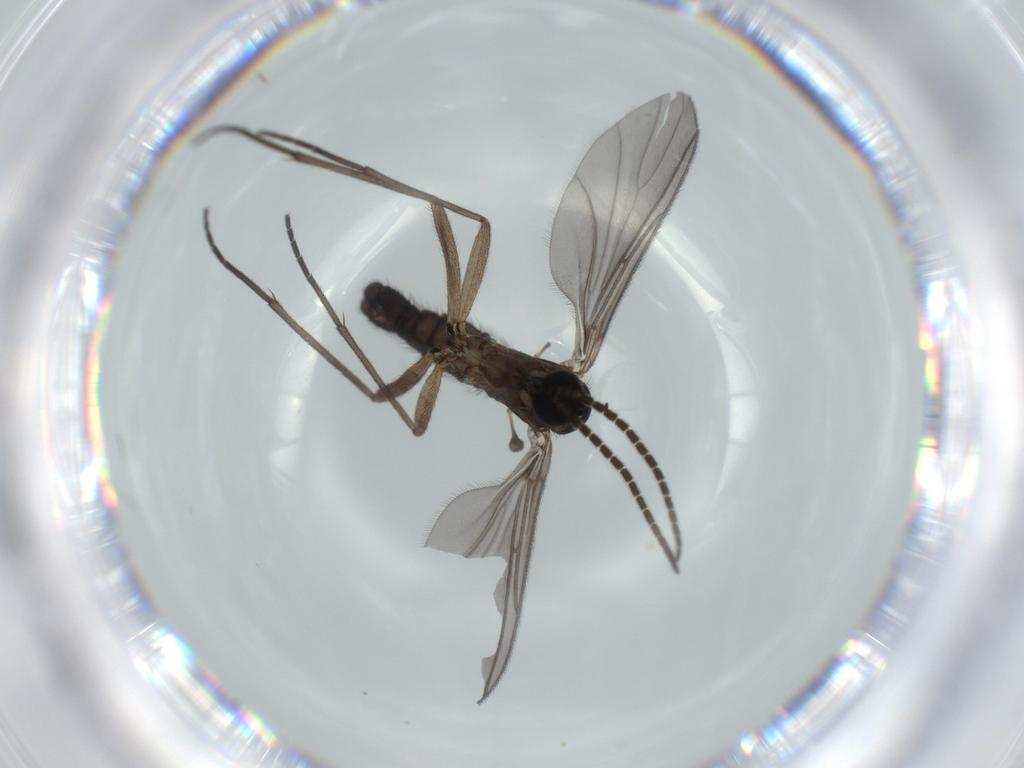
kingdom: Animalia
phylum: Arthropoda
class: Insecta
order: Diptera
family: Sciaridae
